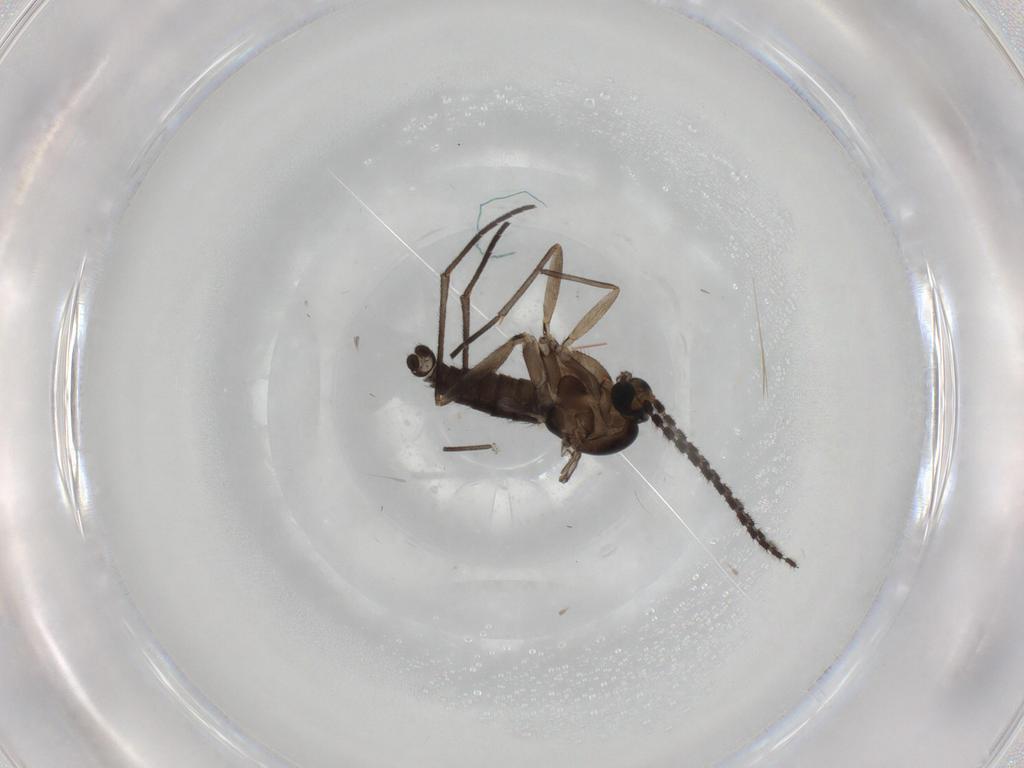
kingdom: Animalia
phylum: Arthropoda
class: Insecta
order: Diptera
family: Sciaridae
